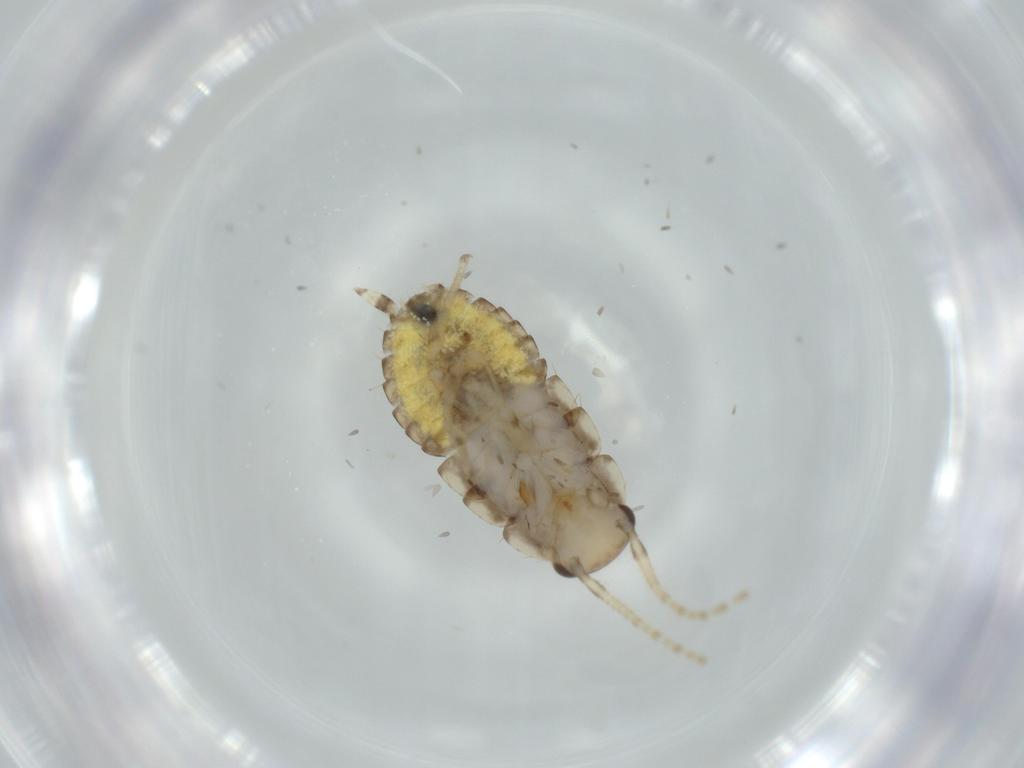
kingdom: Animalia
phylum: Arthropoda
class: Insecta
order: Blattodea
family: Ectobiidae
